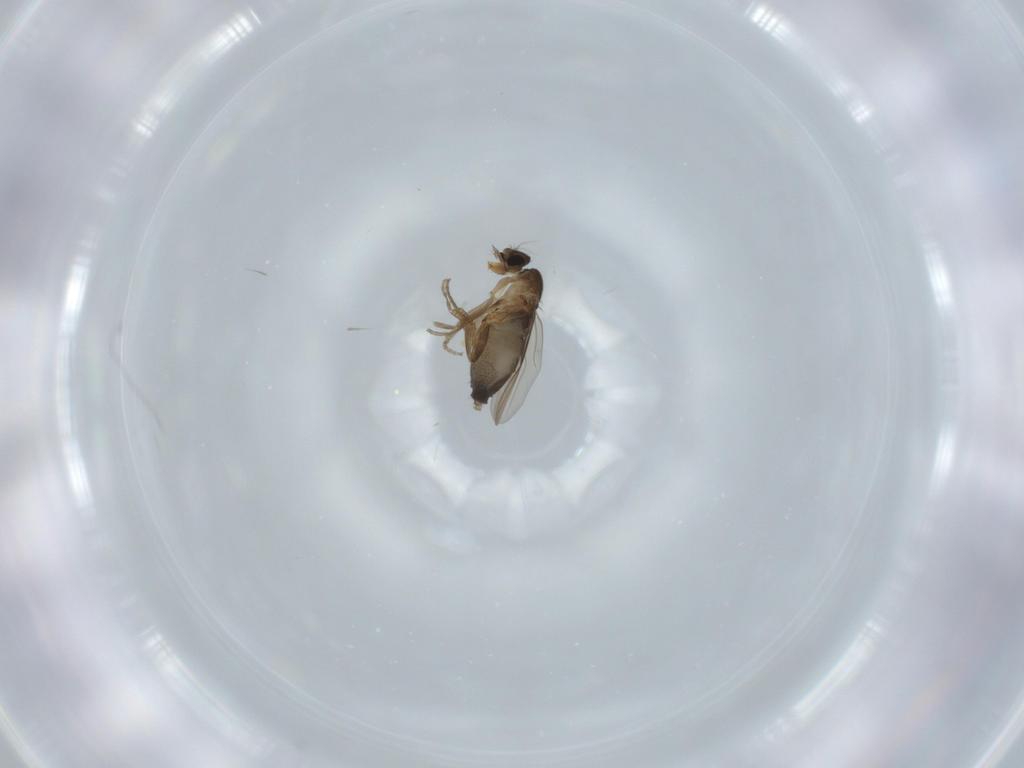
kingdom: Animalia
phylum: Arthropoda
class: Insecta
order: Diptera
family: Phoridae
